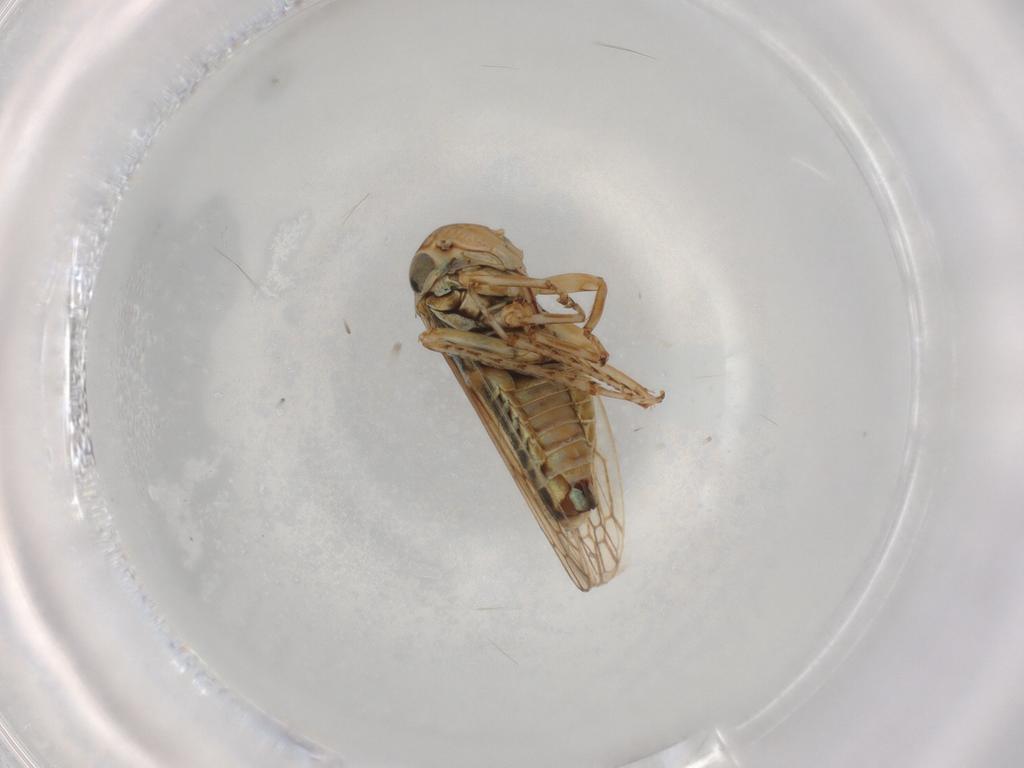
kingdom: Animalia
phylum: Arthropoda
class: Insecta
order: Hemiptera
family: Cicadellidae
